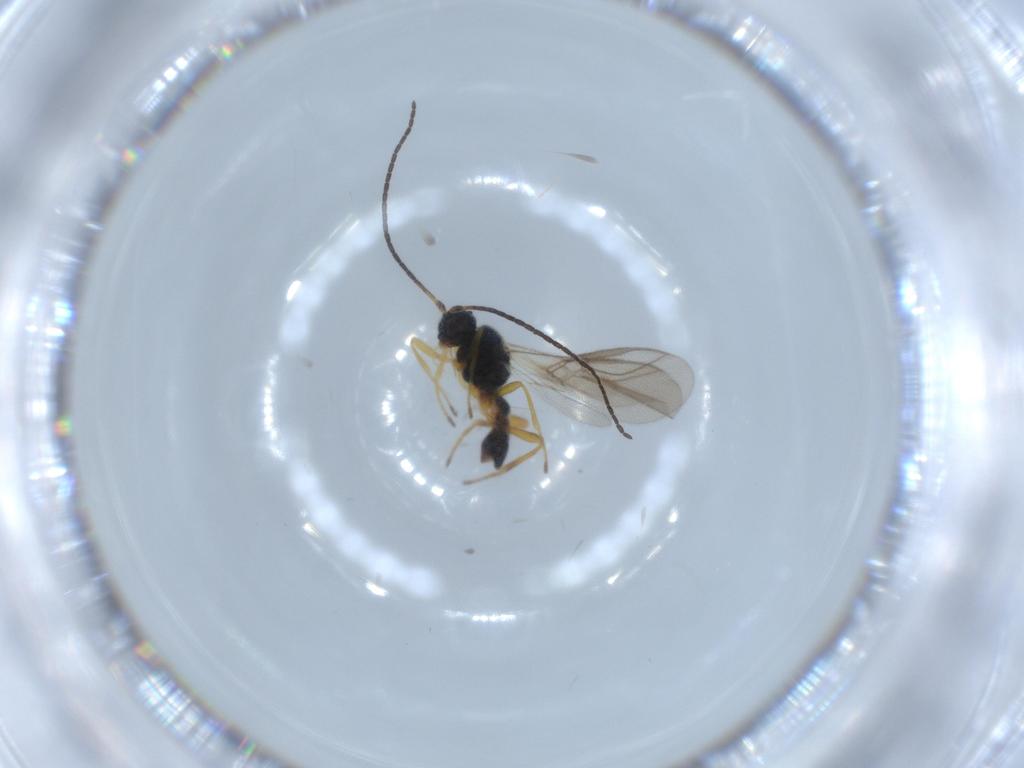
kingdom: Animalia
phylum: Arthropoda
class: Insecta
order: Hymenoptera
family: Braconidae
